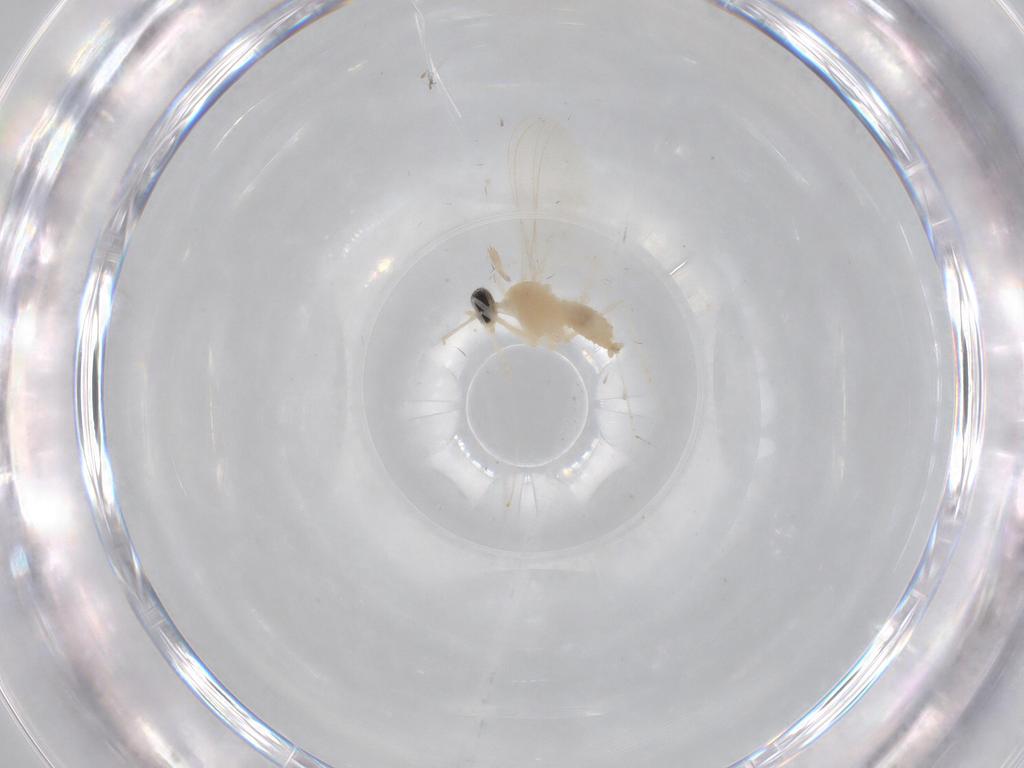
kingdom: Animalia
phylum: Arthropoda
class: Insecta
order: Diptera
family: Cecidomyiidae
